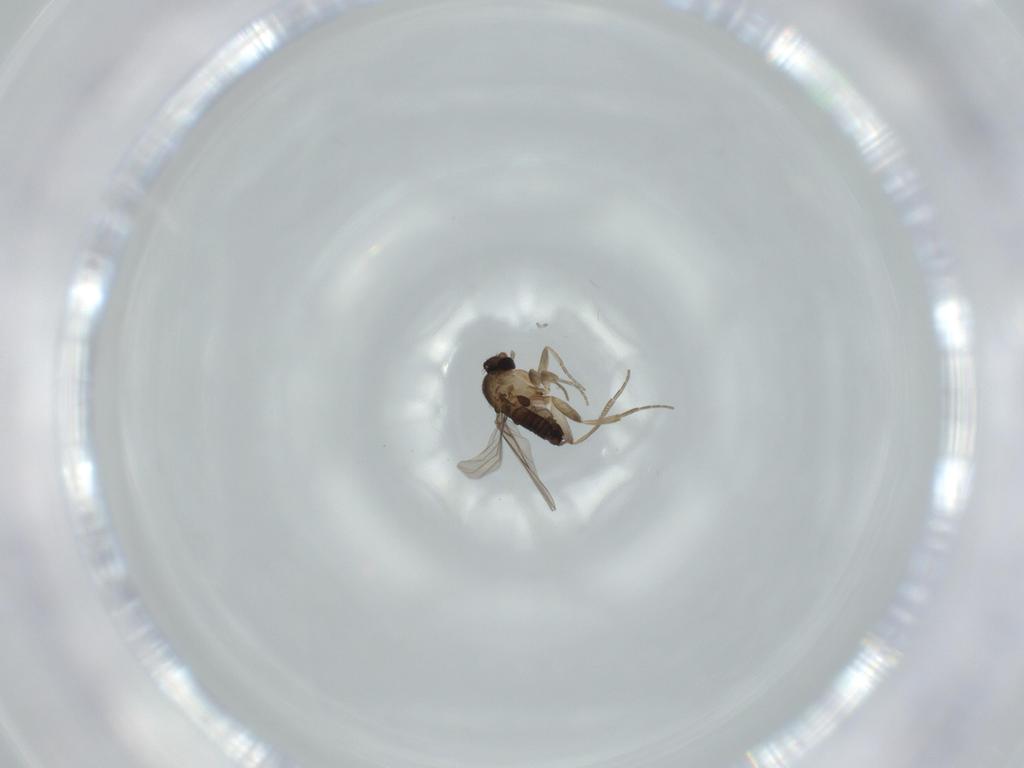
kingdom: Animalia
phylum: Arthropoda
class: Insecta
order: Diptera
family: Phoridae
